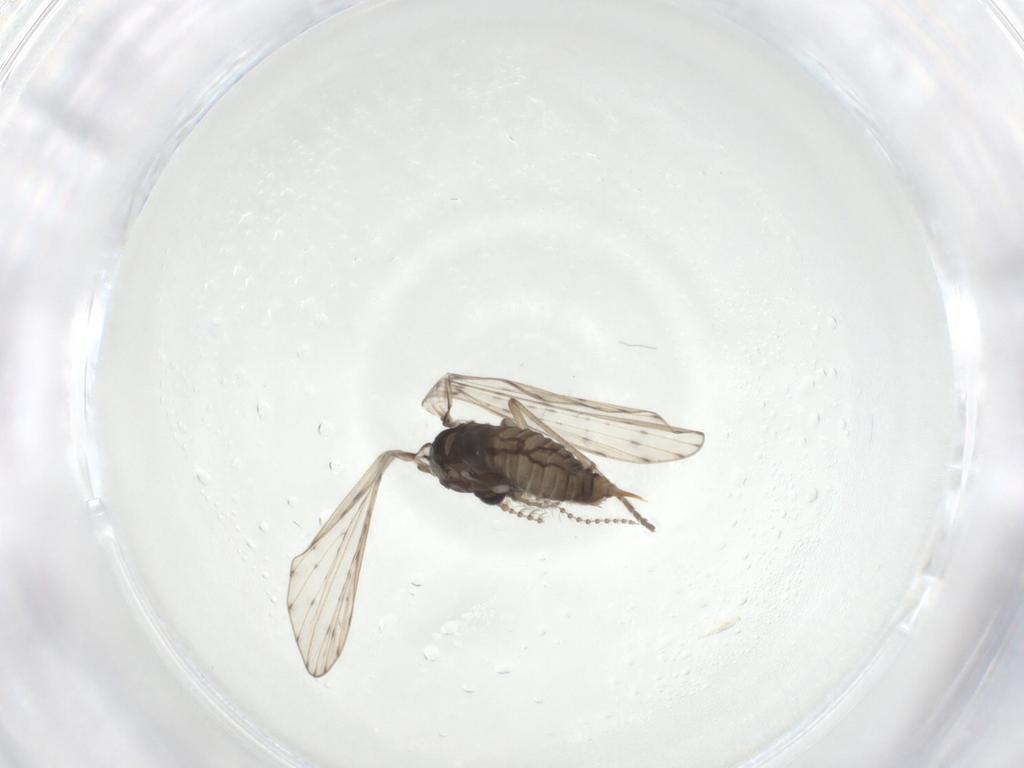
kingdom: Animalia
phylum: Arthropoda
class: Insecta
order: Diptera
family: Psychodidae
